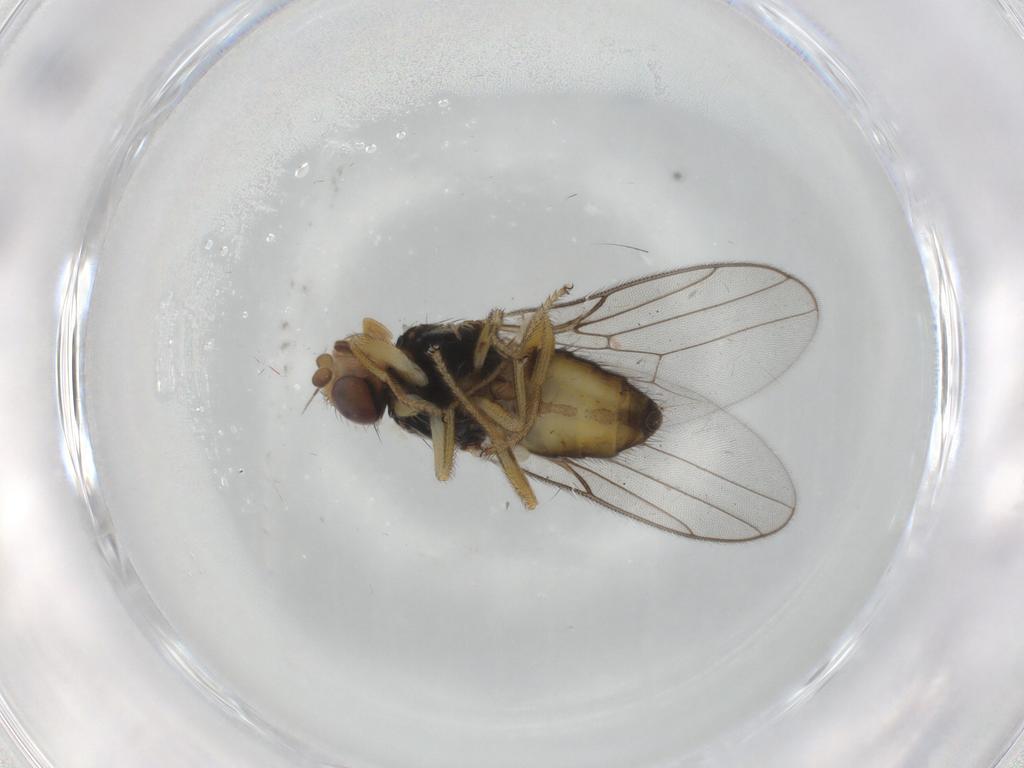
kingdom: Animalia
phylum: Arthropoda
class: Insecta
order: Diptera
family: Chloropidae
